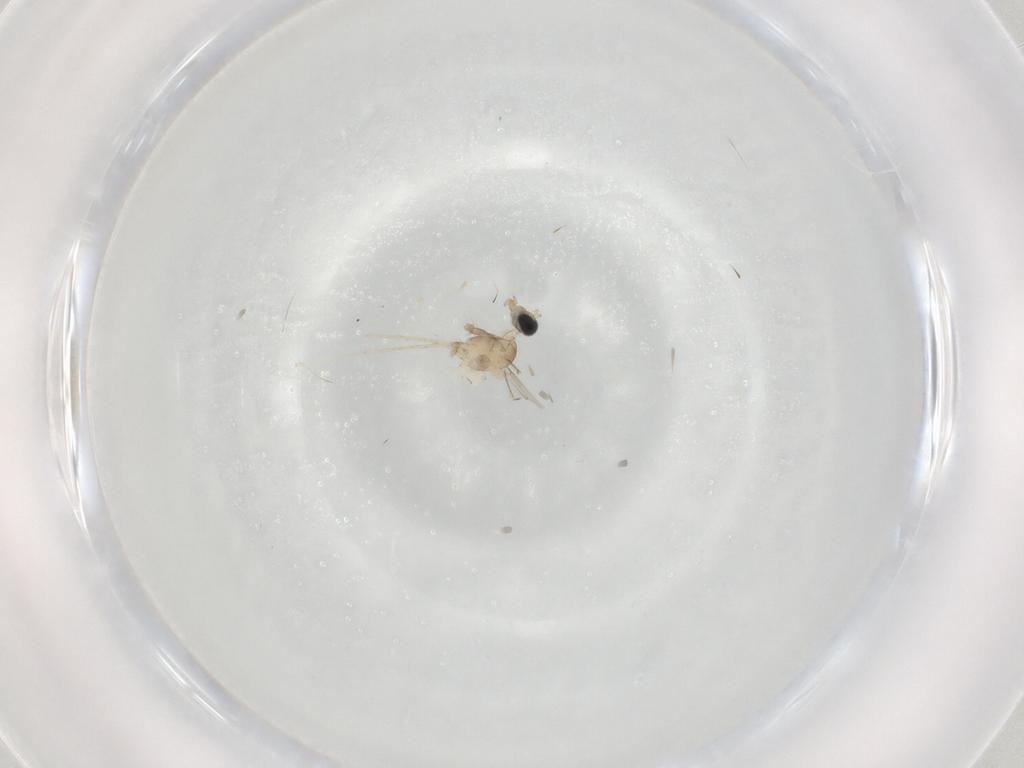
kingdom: Animalia
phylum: Arthropoda
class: Insecta
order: Diptera
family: Cecidomyiidae
